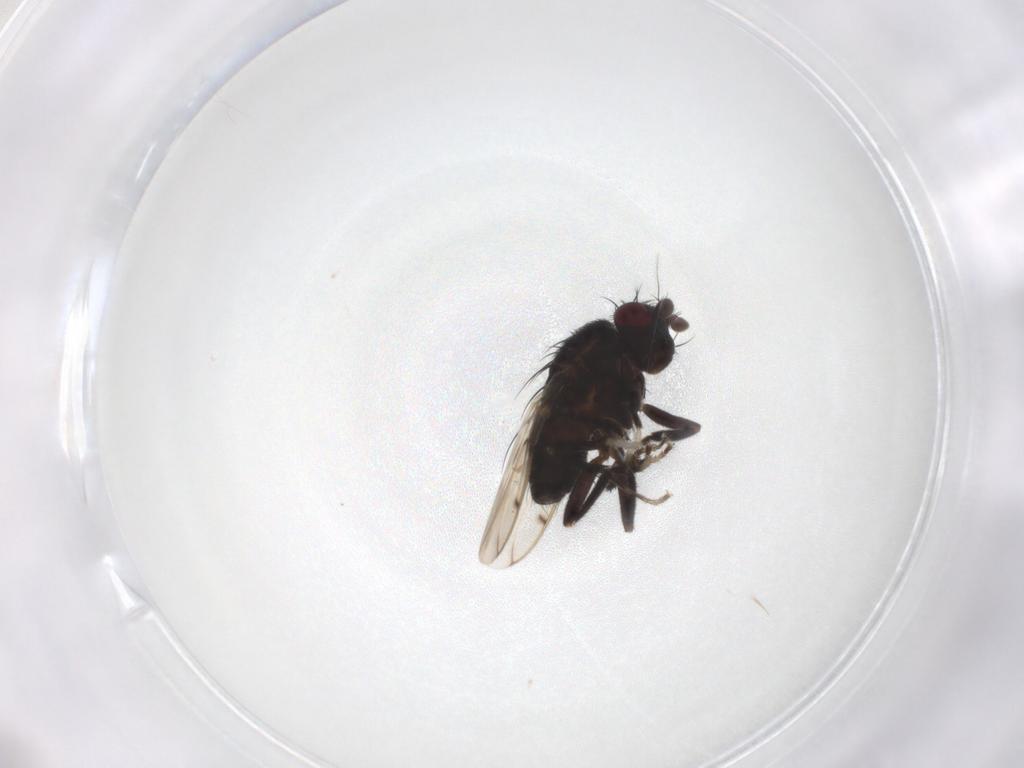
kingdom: Animalia
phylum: Arthropoda
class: Insecta
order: Diptera
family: Sphaeroceridae
